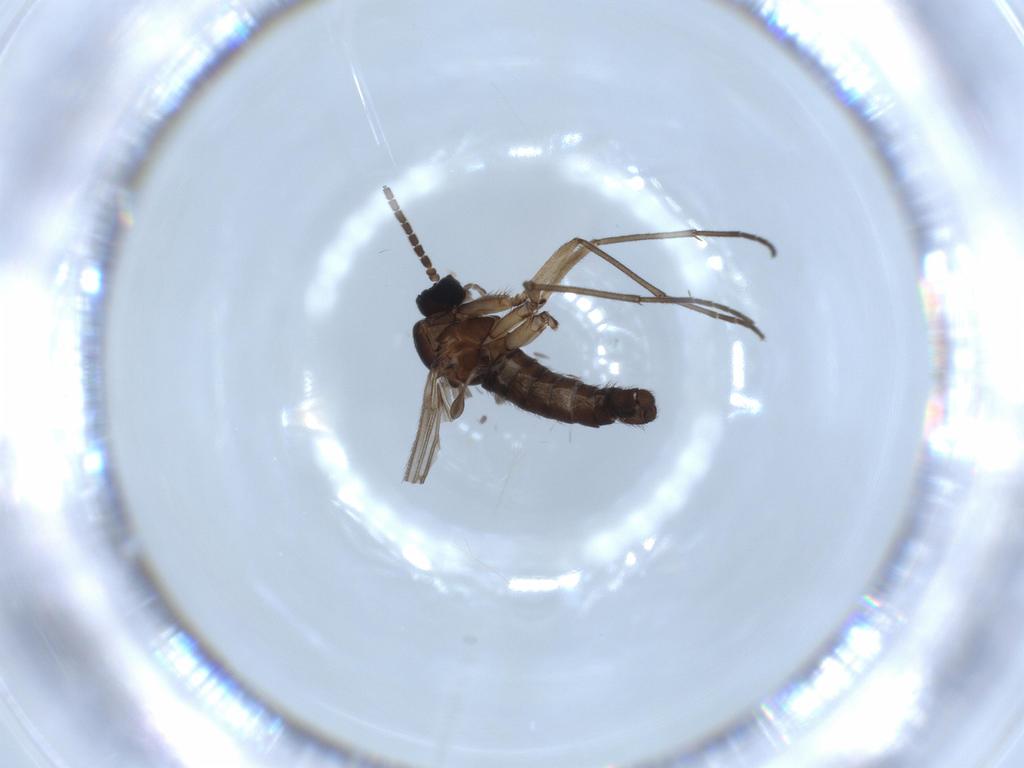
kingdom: Animalia
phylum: Arthropoda
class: Insecta
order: Diptera
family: Sciaridae
